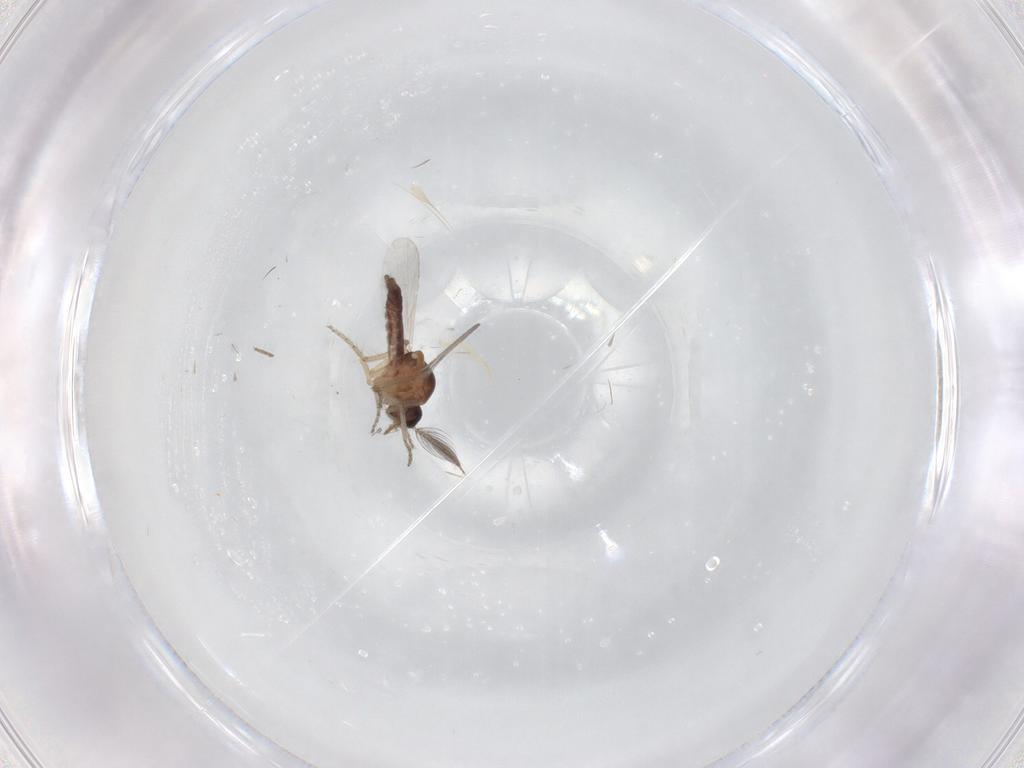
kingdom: Animalia
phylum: Arthropoda
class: Insecta
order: Diptera
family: Ceratopogonidae
